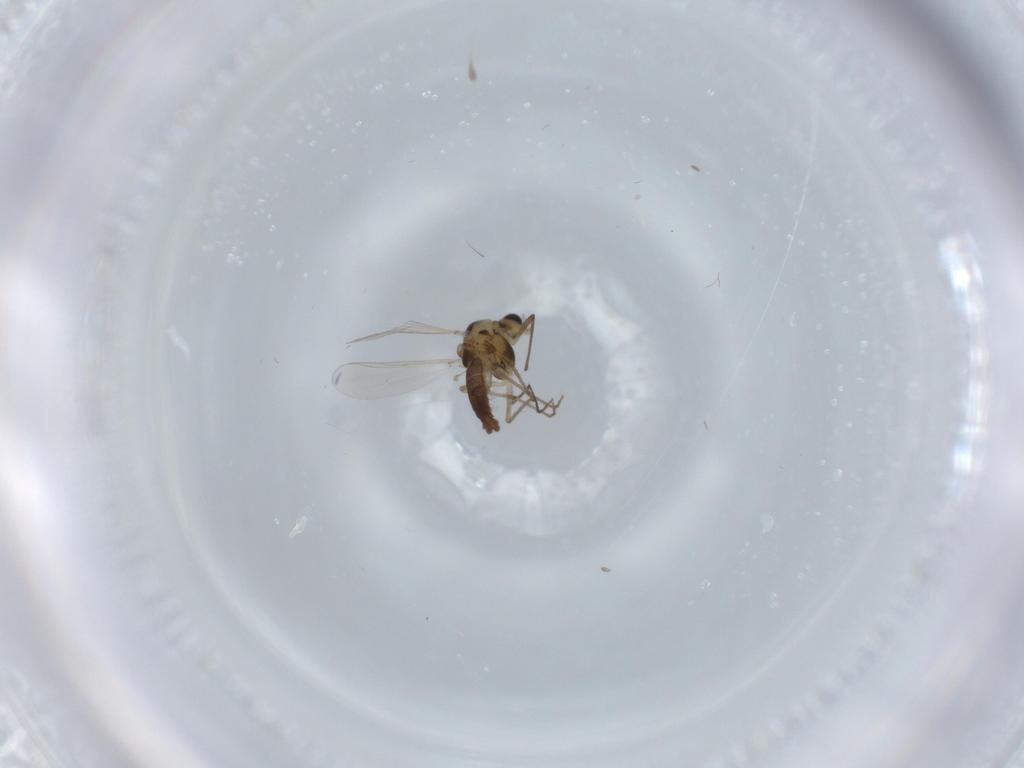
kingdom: Animalia
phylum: Arthropoda
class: Insecta
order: Diptera
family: Chironomidae
